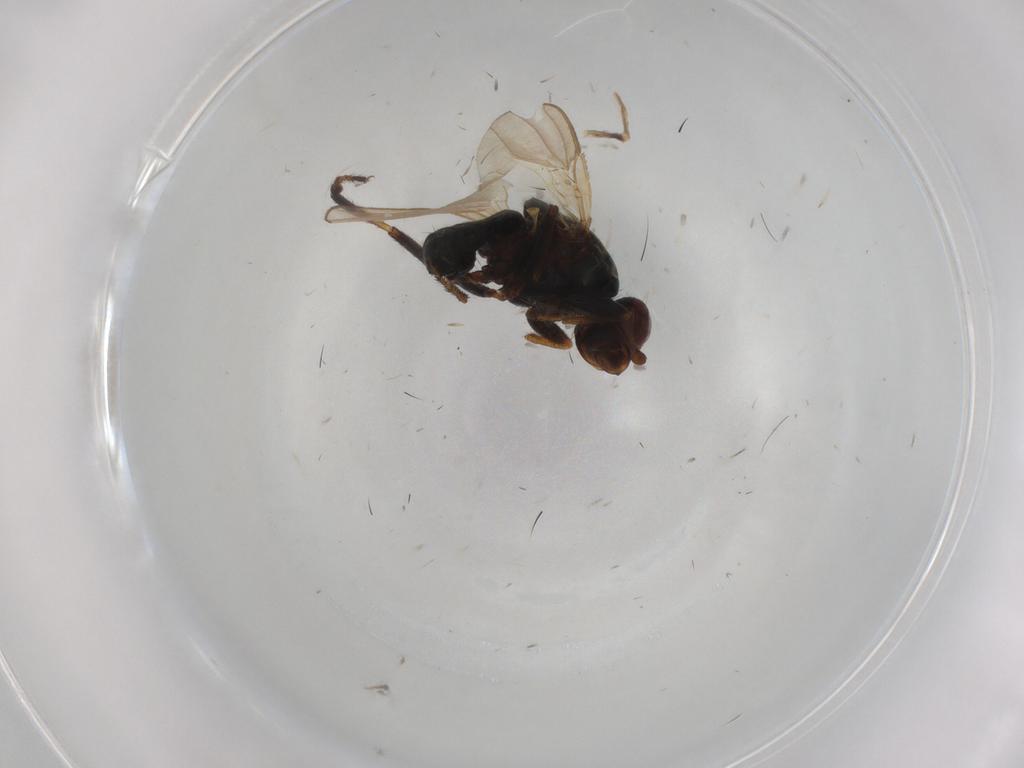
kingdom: Animalia
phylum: Arthropoda
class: Insecta
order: Diptera
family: Sphaeroceridae
